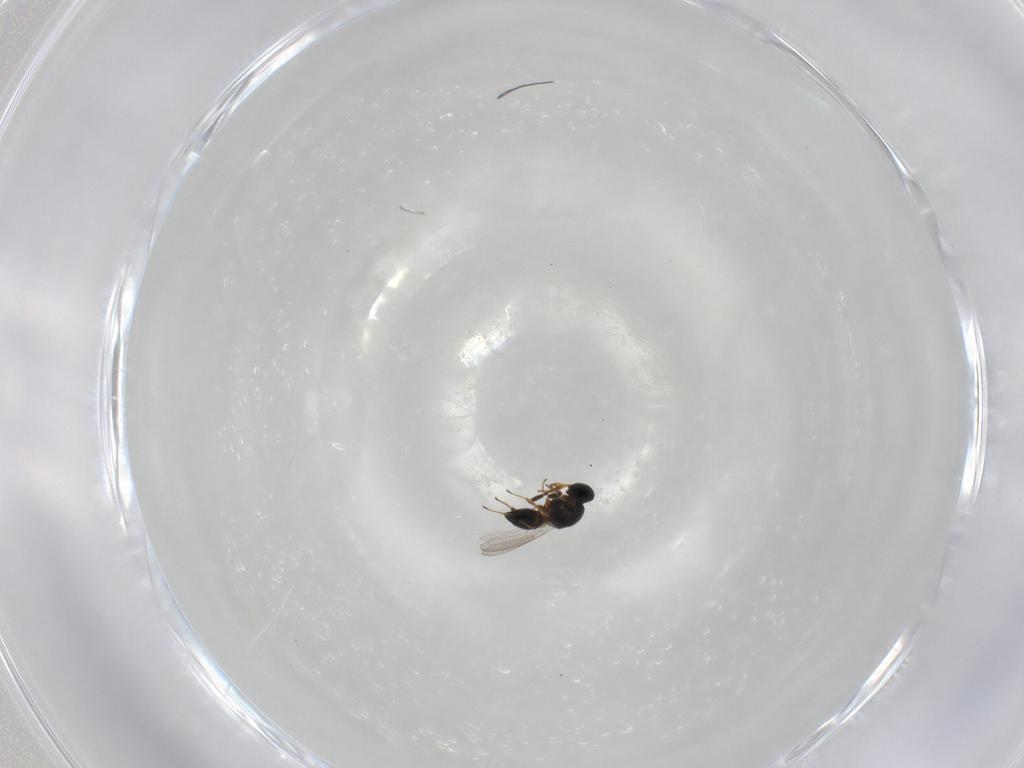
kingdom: Animalia
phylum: Arthropoda
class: Insecta
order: Hymenoptera
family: Platygastridae
